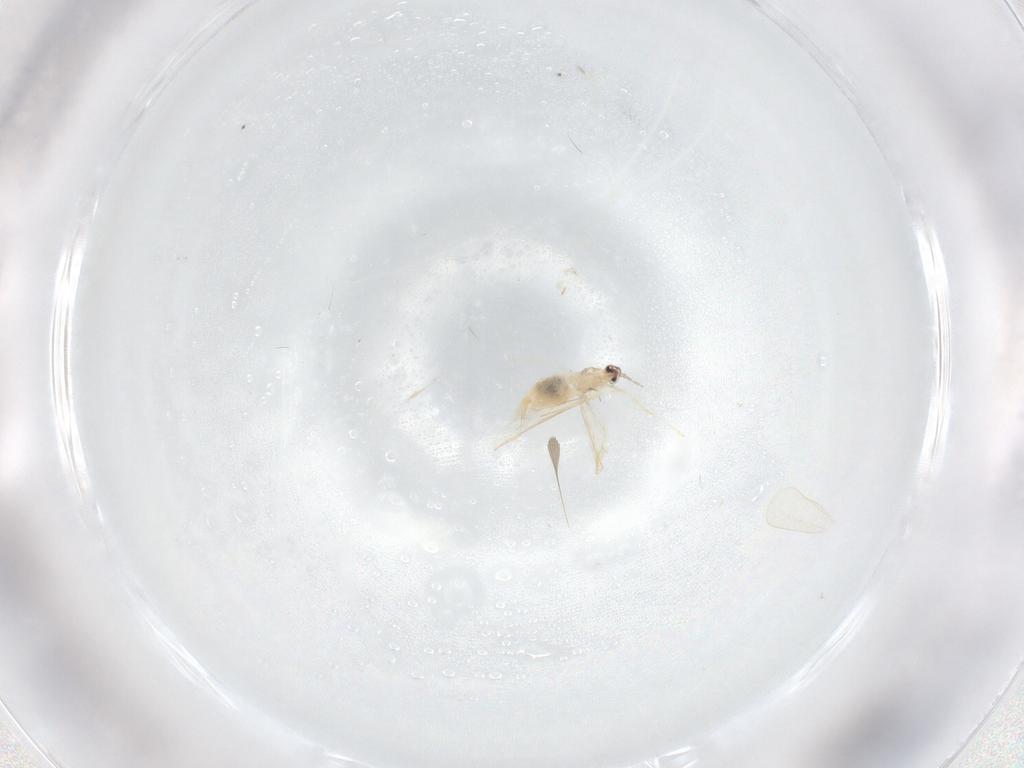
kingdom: Animalia
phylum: Arthropoda
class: Insecta
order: Diptera
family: Cecidomyiidae
